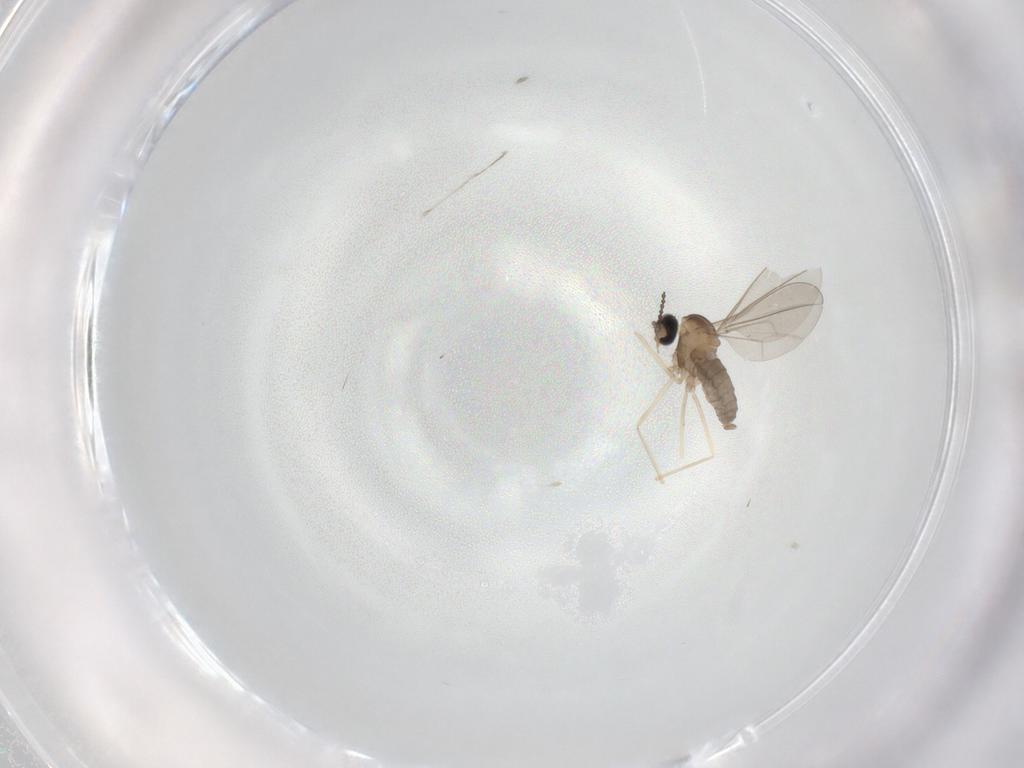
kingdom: Animalia
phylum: Arthropoda
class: Insecta
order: Diptera
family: Cecidomyiidae
